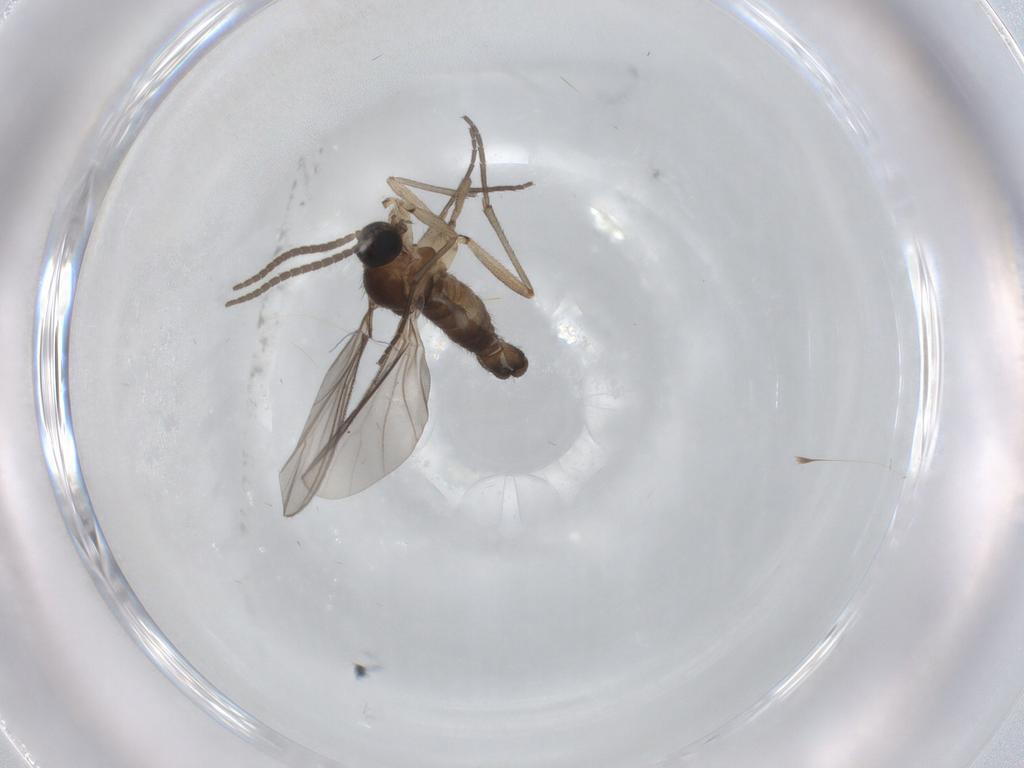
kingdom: Animalia
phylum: Arthropoda
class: Insecta
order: Diptera
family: Sciaridae
